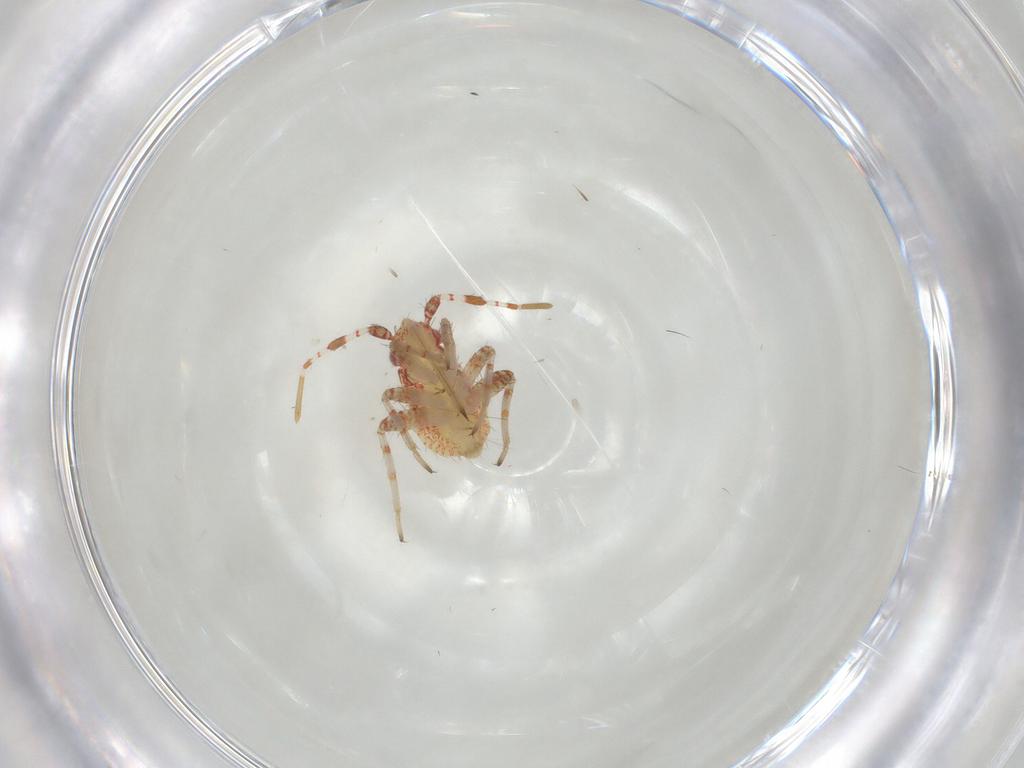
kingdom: Animalia
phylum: Arthropoda
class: Insecta
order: Hemiptera
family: Miridae
